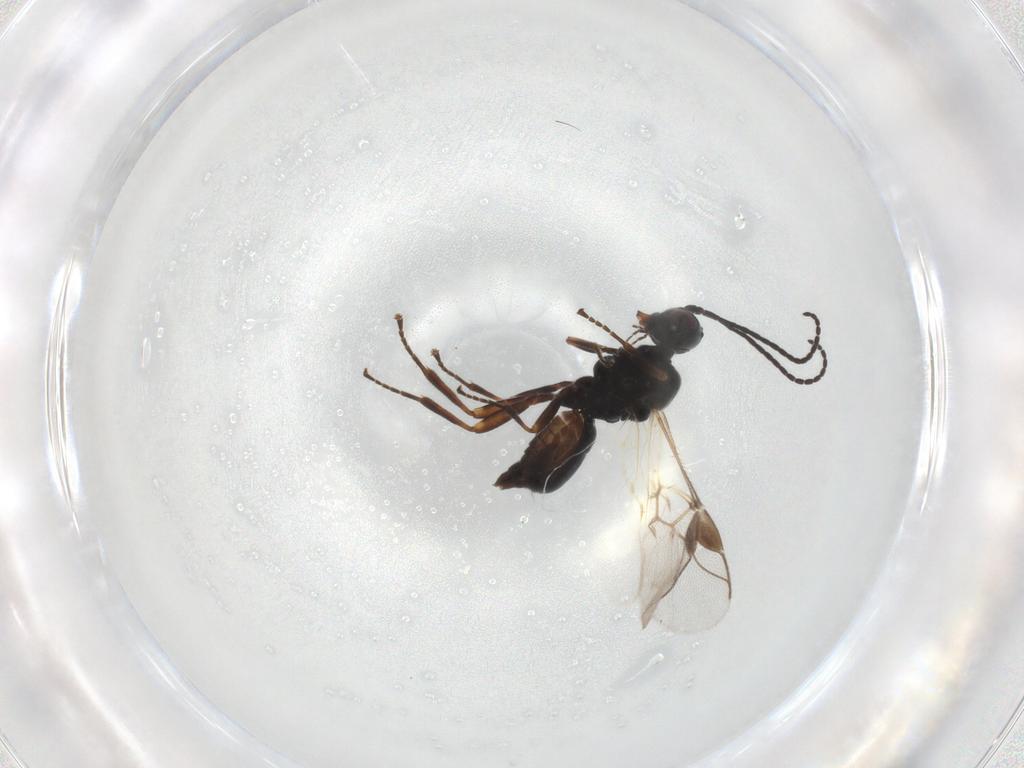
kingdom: Animalia
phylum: Arthropoda
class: Insecta
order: Hymenoptera
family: Braconidae
